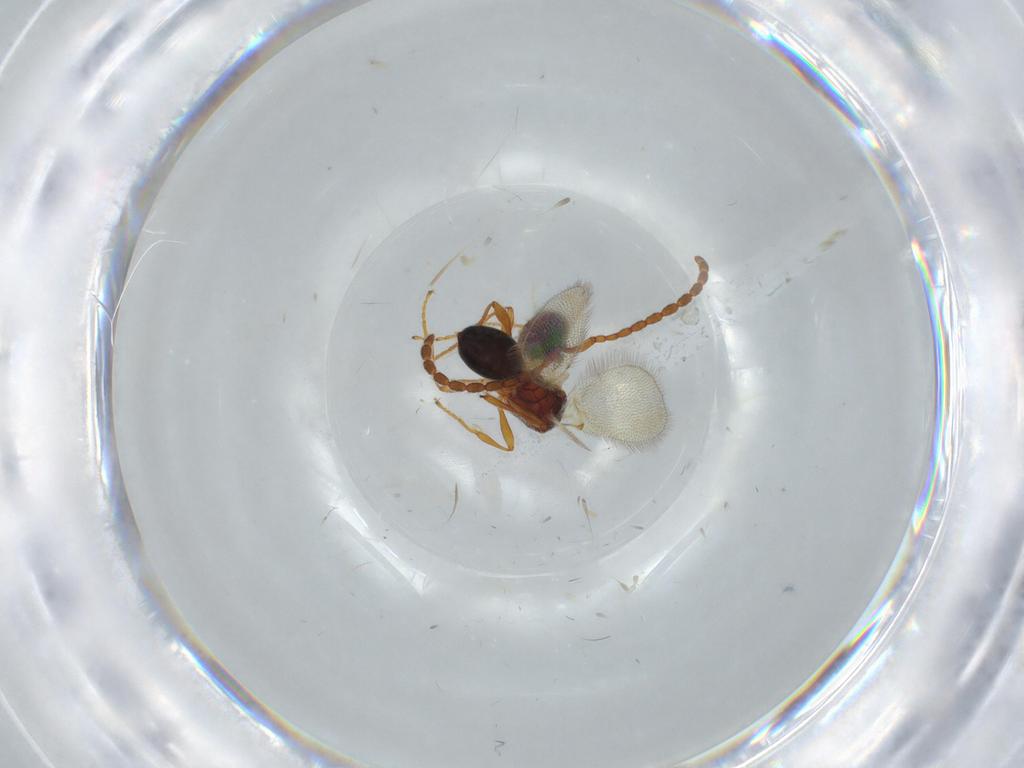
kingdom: Animalia
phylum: Arthropoda
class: Insecta
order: Hymenoptera
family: Diapriidae
